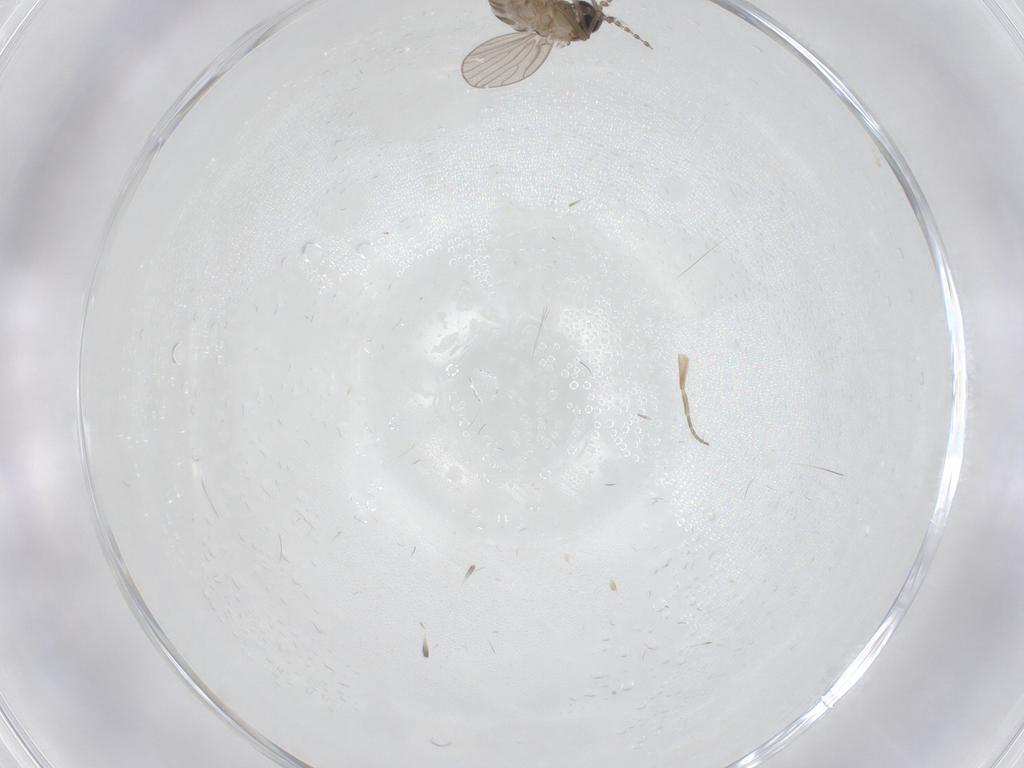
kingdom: Animalia
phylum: Arthropoda
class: Insecta
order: Diptera
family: Phoridae
